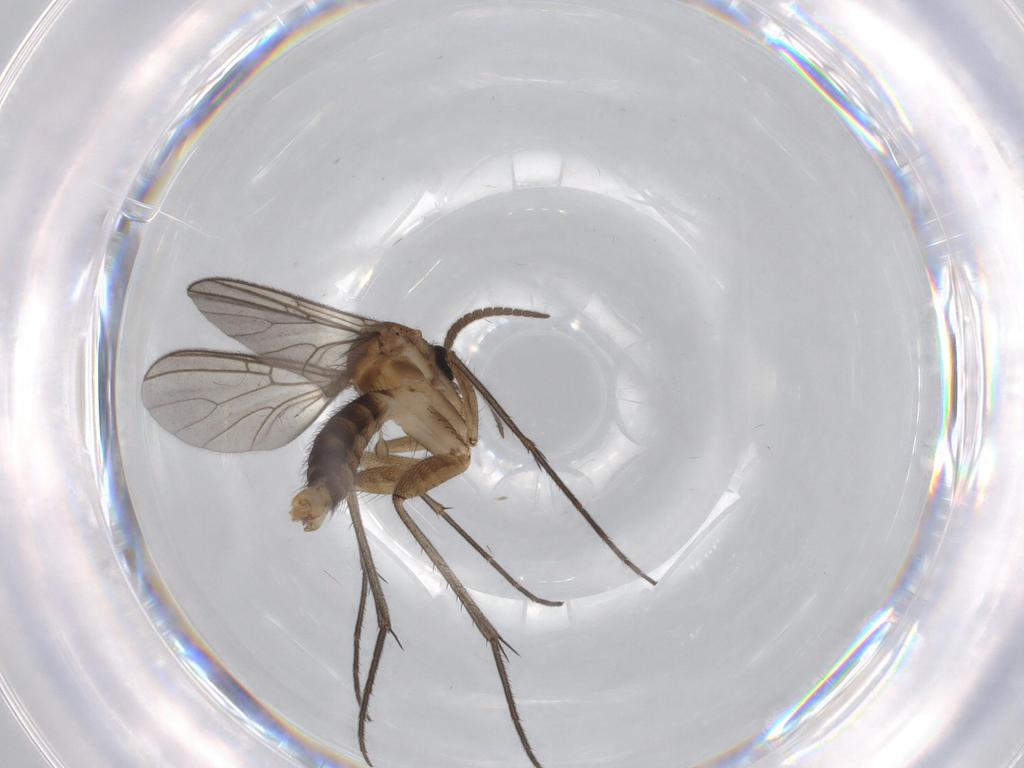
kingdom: Animalia
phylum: Arthropoda
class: Insecta
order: Diptera
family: Mycetophilidae
